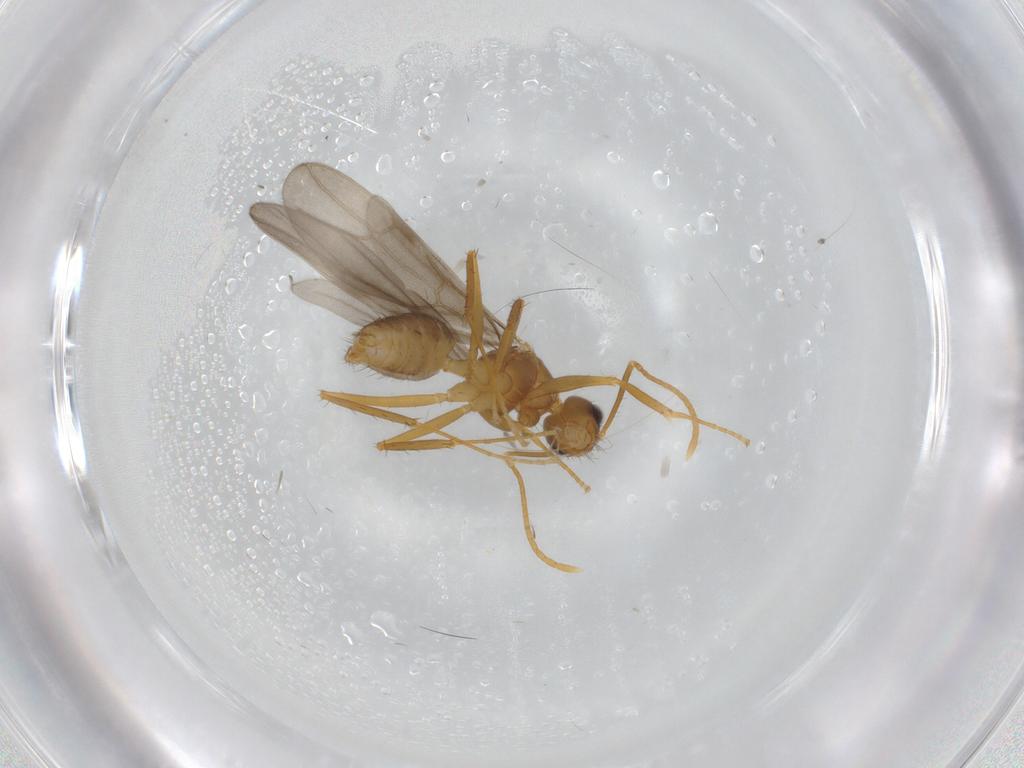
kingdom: Animalia
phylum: Arthropoda
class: Insecta
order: Hymenoptera
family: Formicidae
